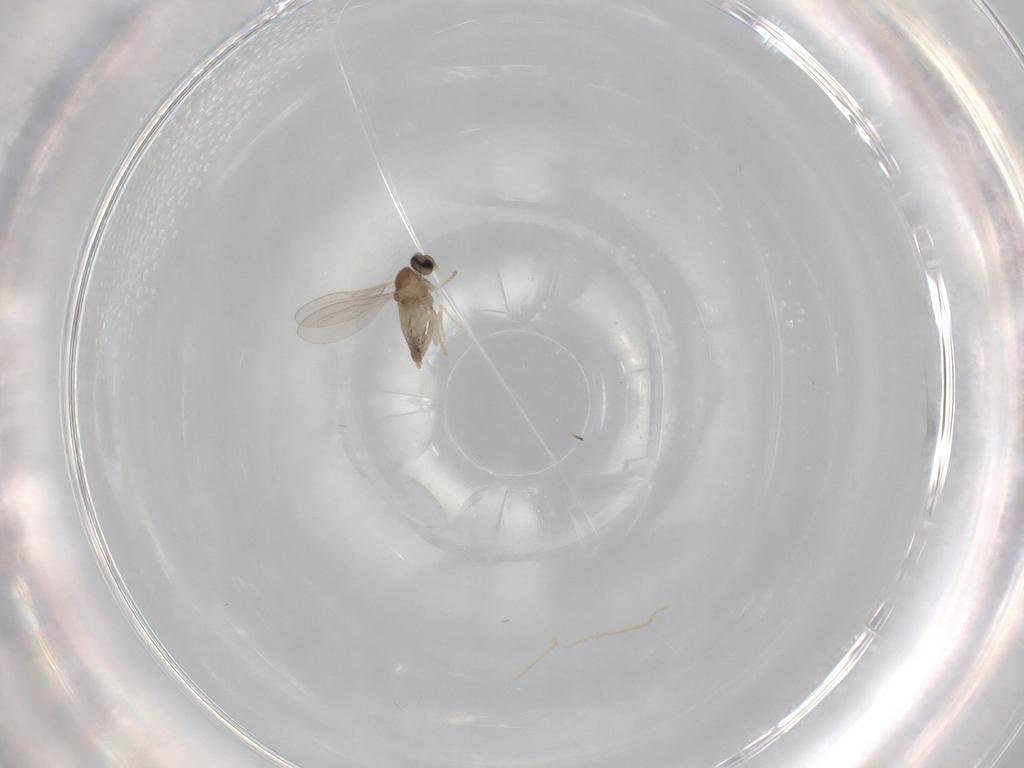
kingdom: Animalia
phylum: Arthropoda
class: Insecta
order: Diptera
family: Cecidomyiidae
